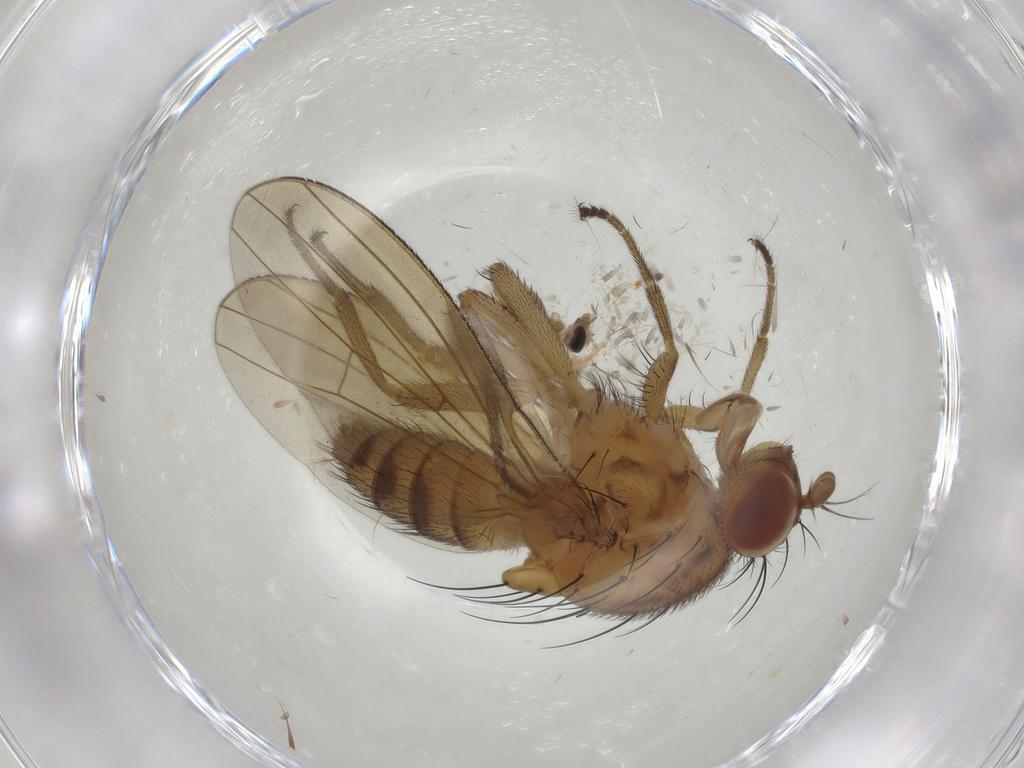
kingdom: Animalia
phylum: Arthropoda
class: Insecta
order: Diptera
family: Chironomidae
